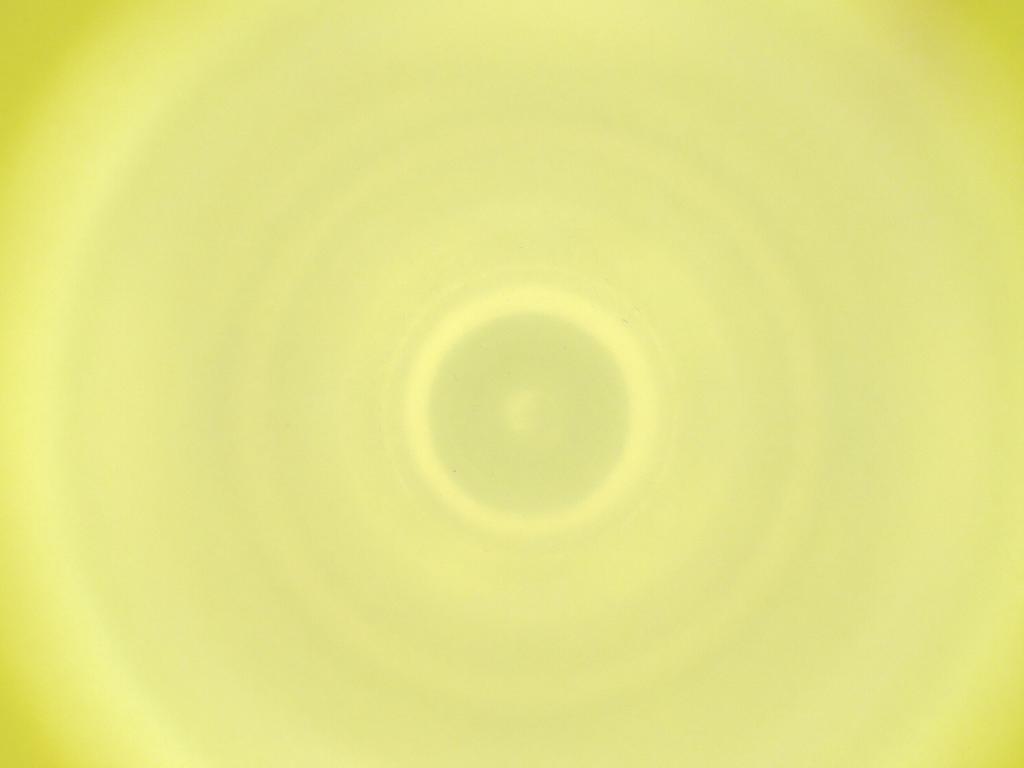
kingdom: Animalia
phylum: Arthropoda
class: Insecta
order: Diptera
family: Cecidomyiidae
